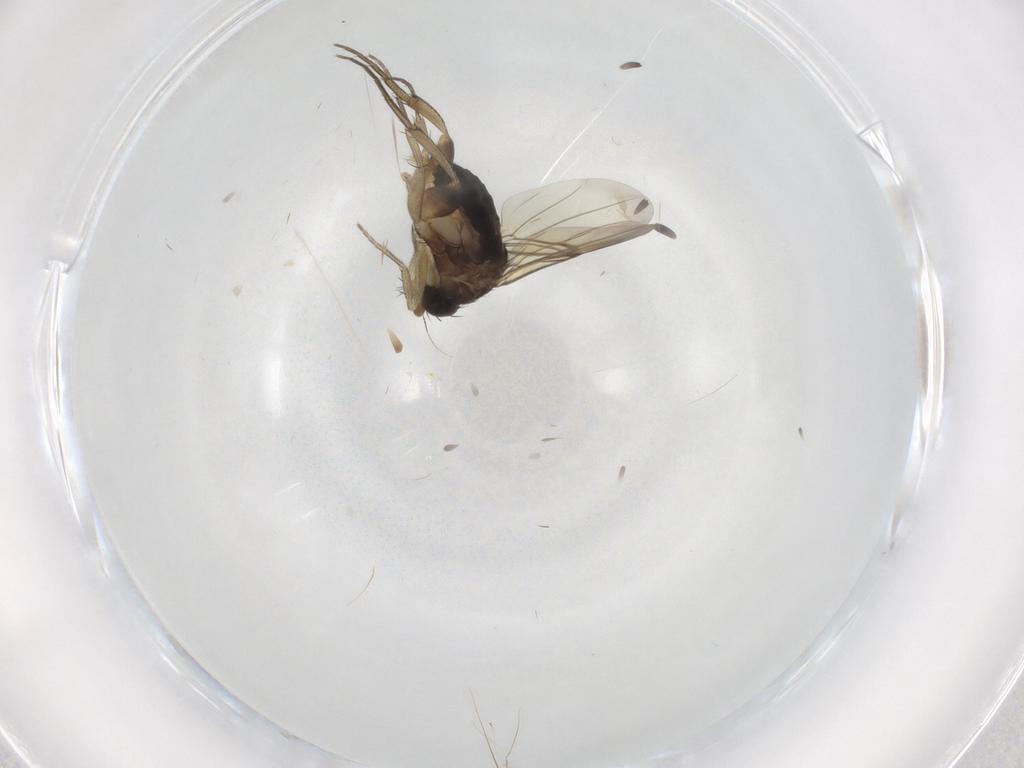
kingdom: Animalia
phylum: Arthropoda
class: Insecta
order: Diptera
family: Phoridae
